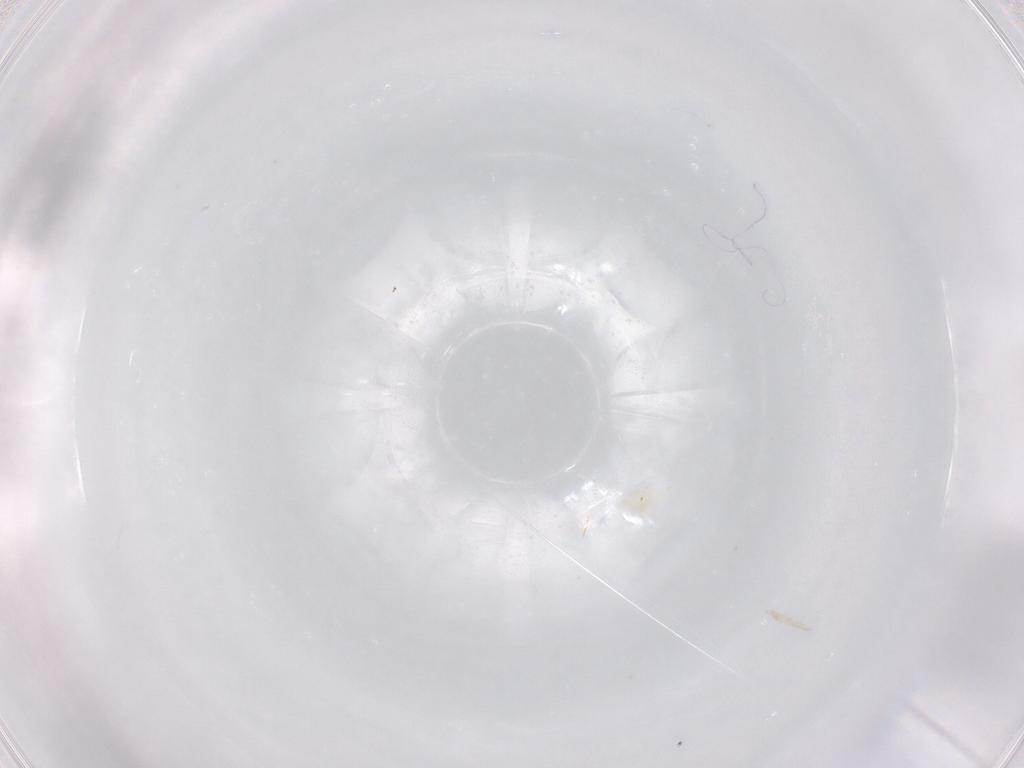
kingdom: Animalia
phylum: Arthropoda
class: Arachnida
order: Trombidiformes
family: Bdellidae
